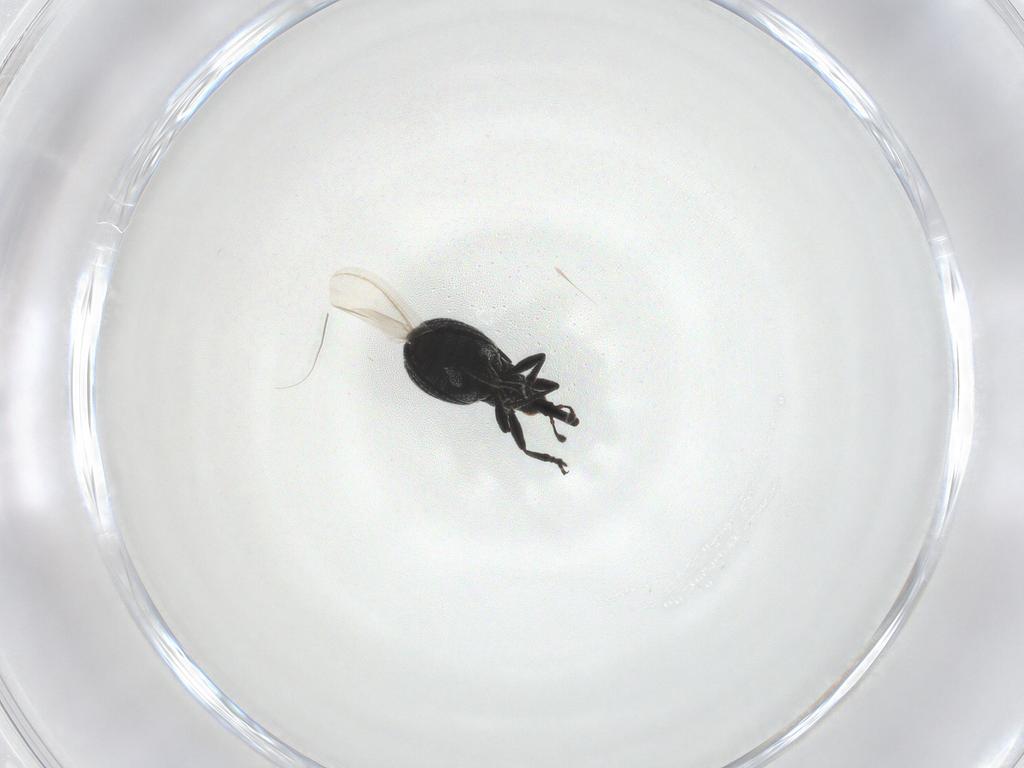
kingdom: Animalia
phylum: Arthropoda
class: Insecta
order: Coleoptera
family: Brentidae
